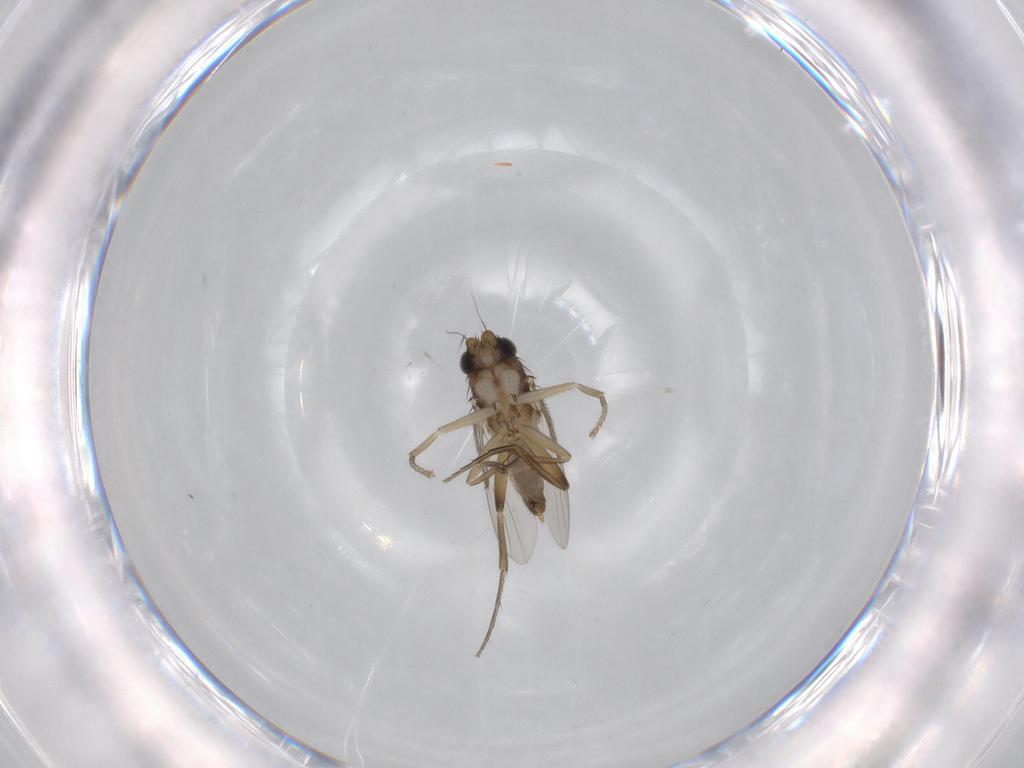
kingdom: Animalia
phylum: Arthropoda
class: Insecta
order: Diptera
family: Phoridae
